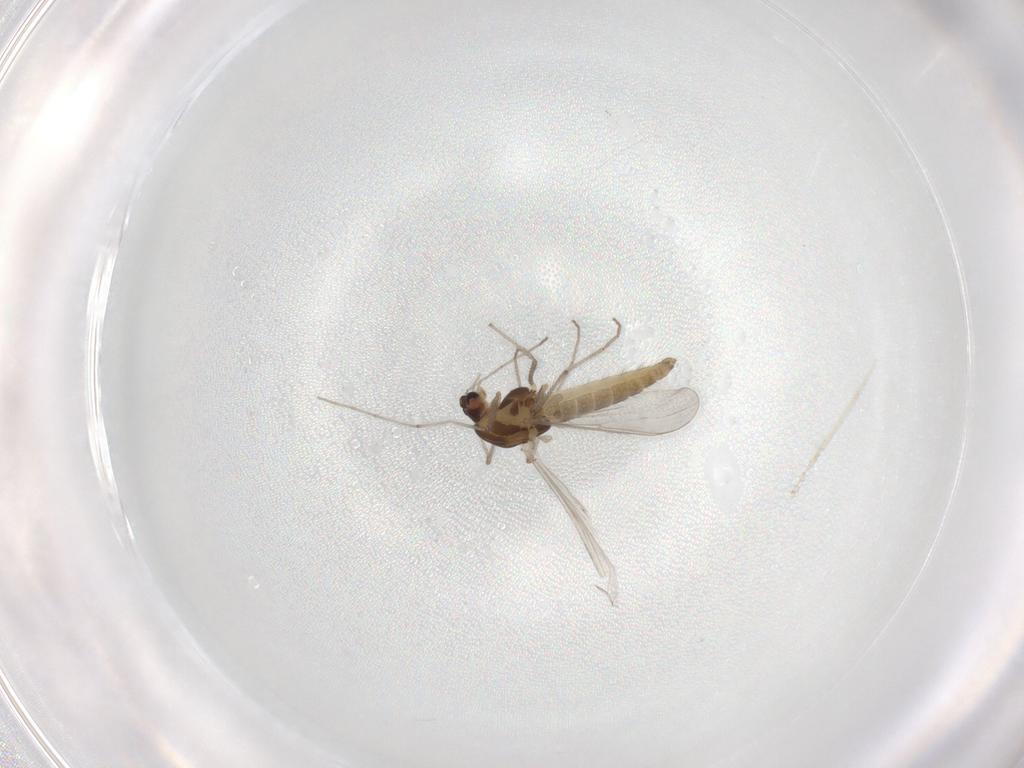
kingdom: Animalia
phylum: Arthropoda
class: Insecta
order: Diptera
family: Chironomidae
